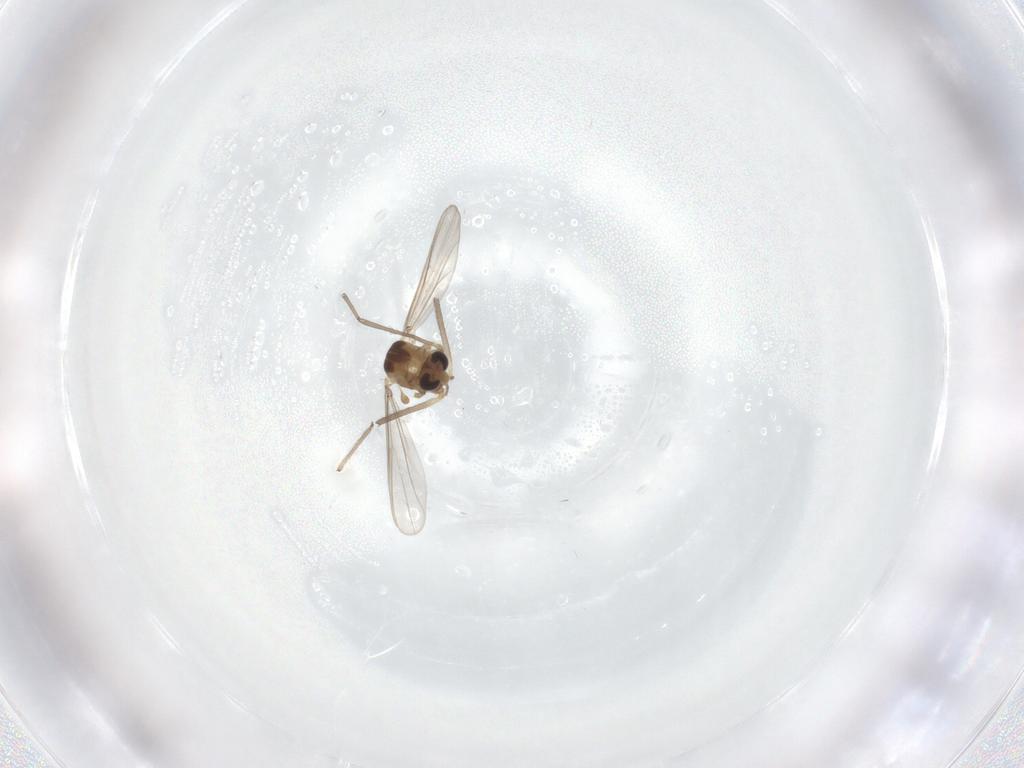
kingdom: Animalia
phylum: Arthropoda
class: Insecta
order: Diptera
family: Chironomidae
